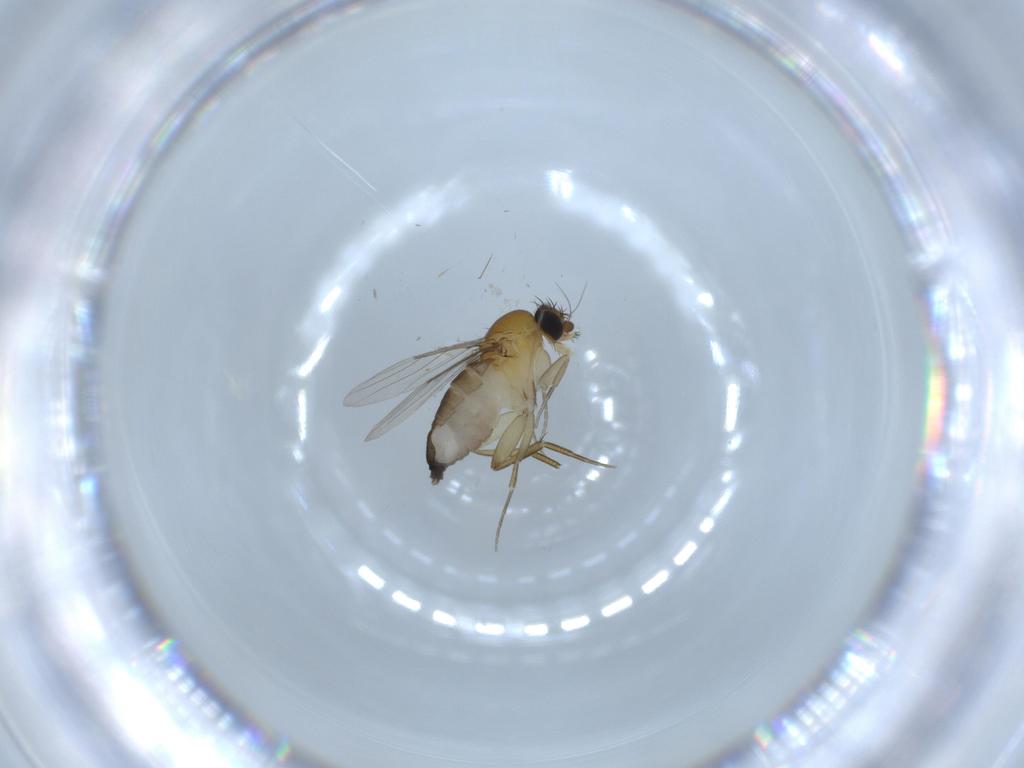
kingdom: Animalia
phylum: Arthropoda
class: Insecta
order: Diptera
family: Phoridae
